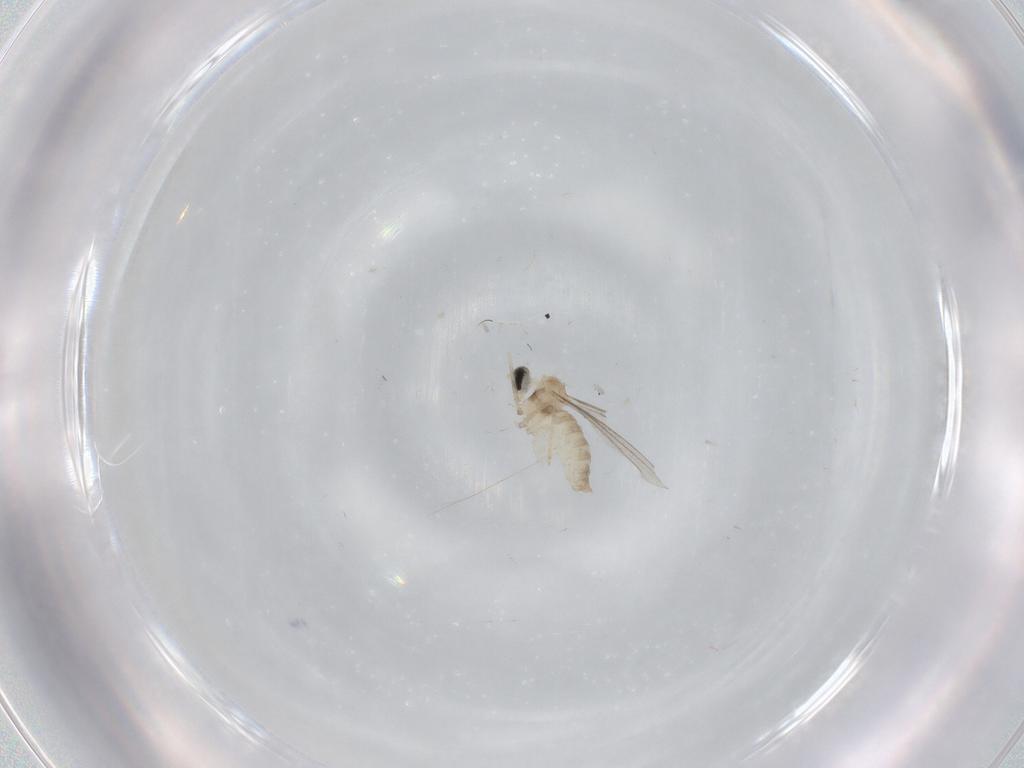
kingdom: Animalia
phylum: Arthropoda
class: Insecta
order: Diptera
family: Cecidomyiidae
